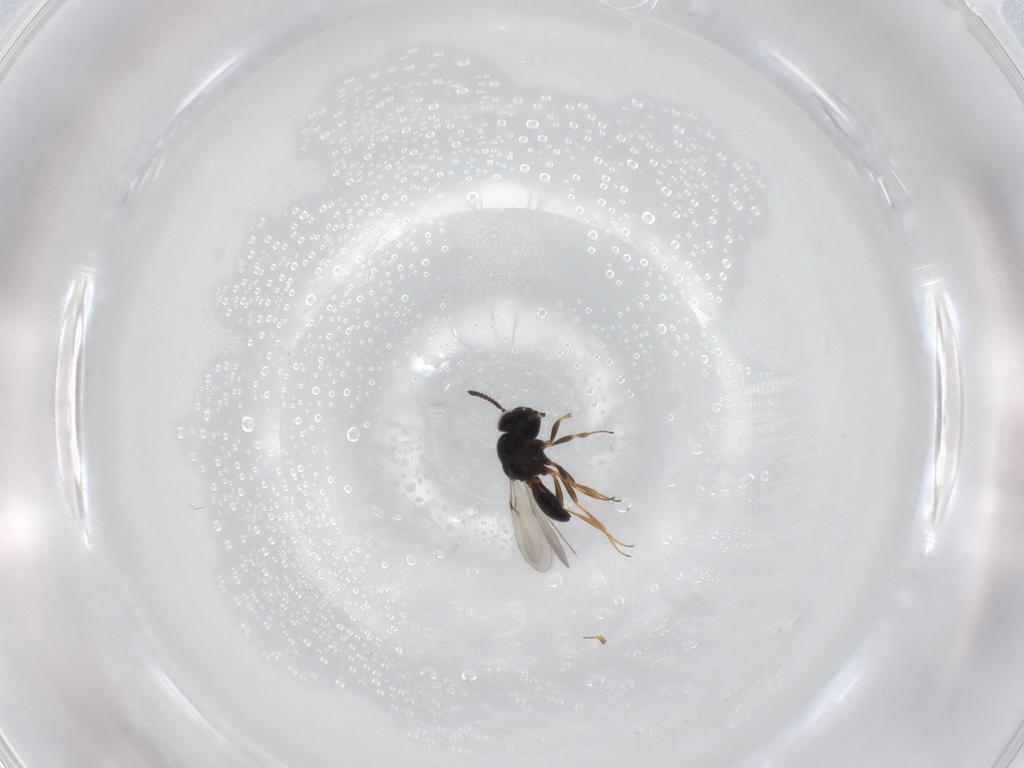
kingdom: Animalia
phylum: Arthropoda
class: Arachnida
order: Araneae
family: Pholcidae
